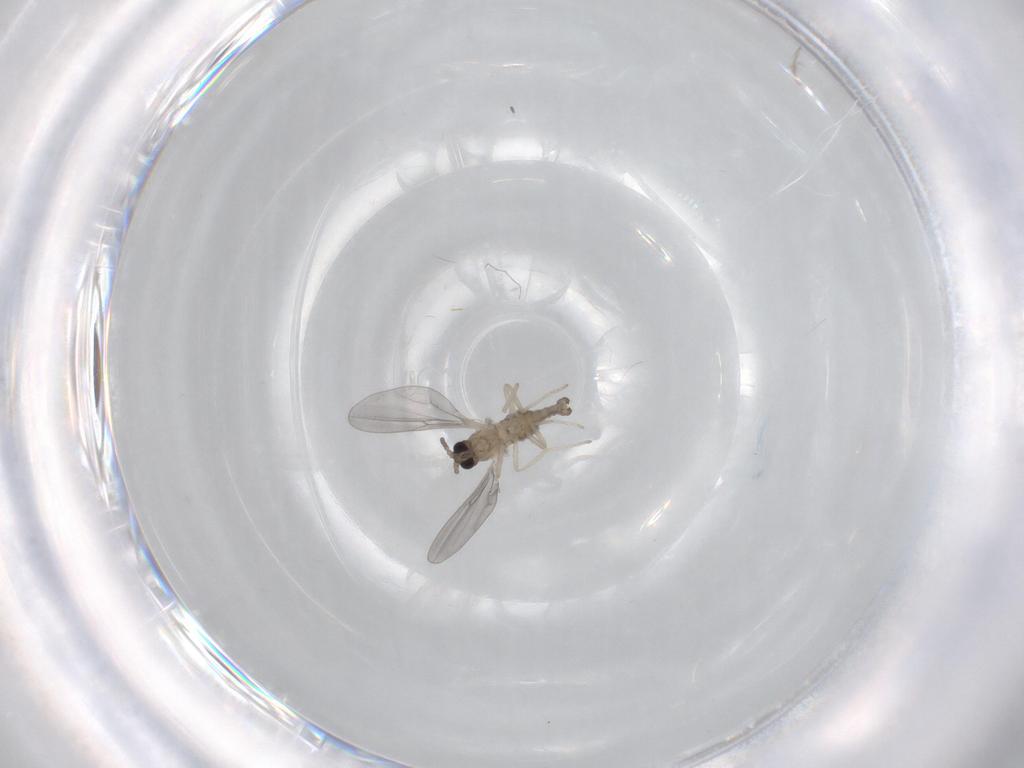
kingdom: Animalia
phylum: Arthropoda
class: Insecta
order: Diptera
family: Cecidomyiidae
